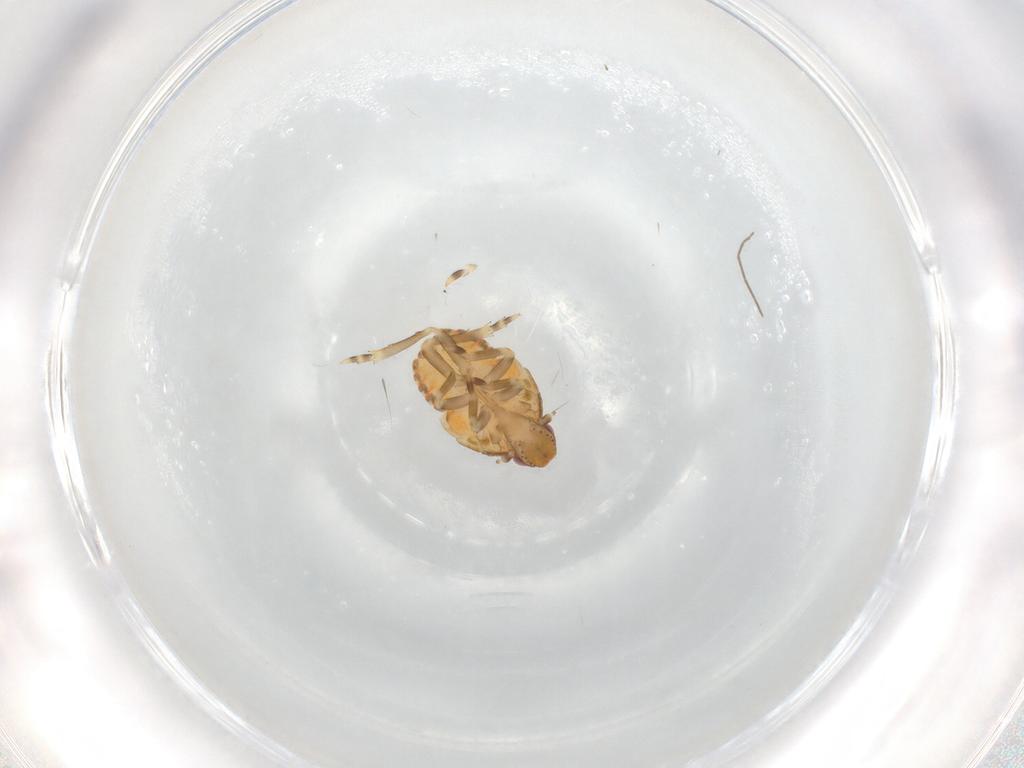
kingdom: Animalia
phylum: Arthropoda
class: Insecta
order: Hemiptera
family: Flatidae
